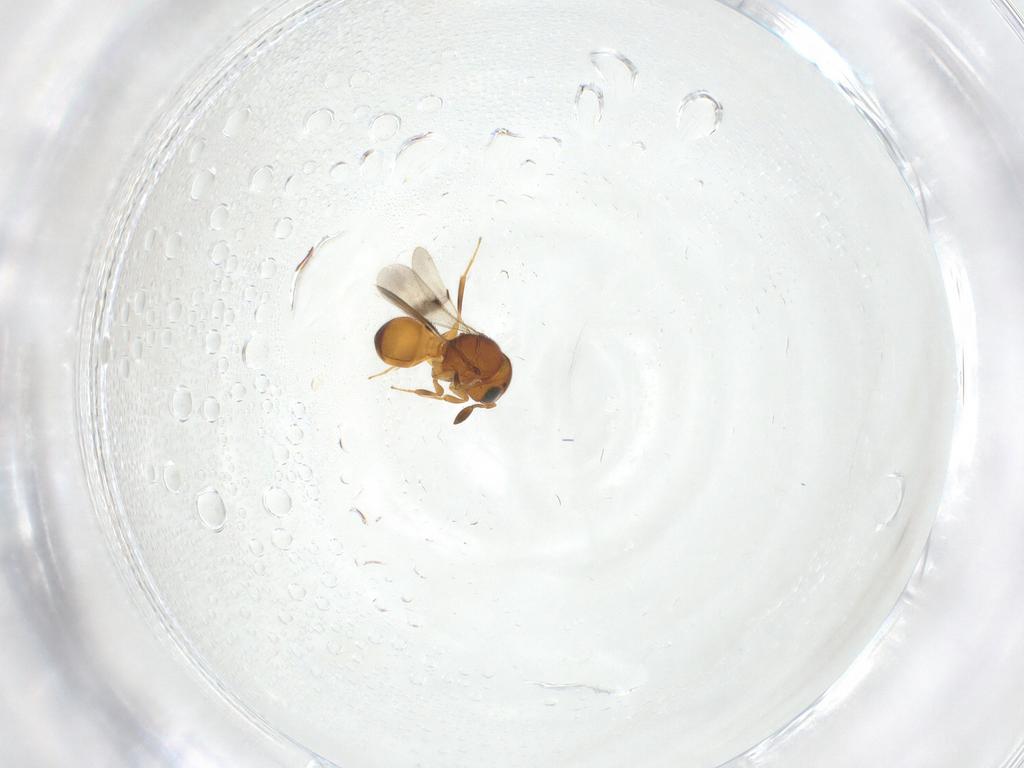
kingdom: Animalia
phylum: Arthropoda
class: Insecta
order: Hymenoptera
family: Scelionidae
